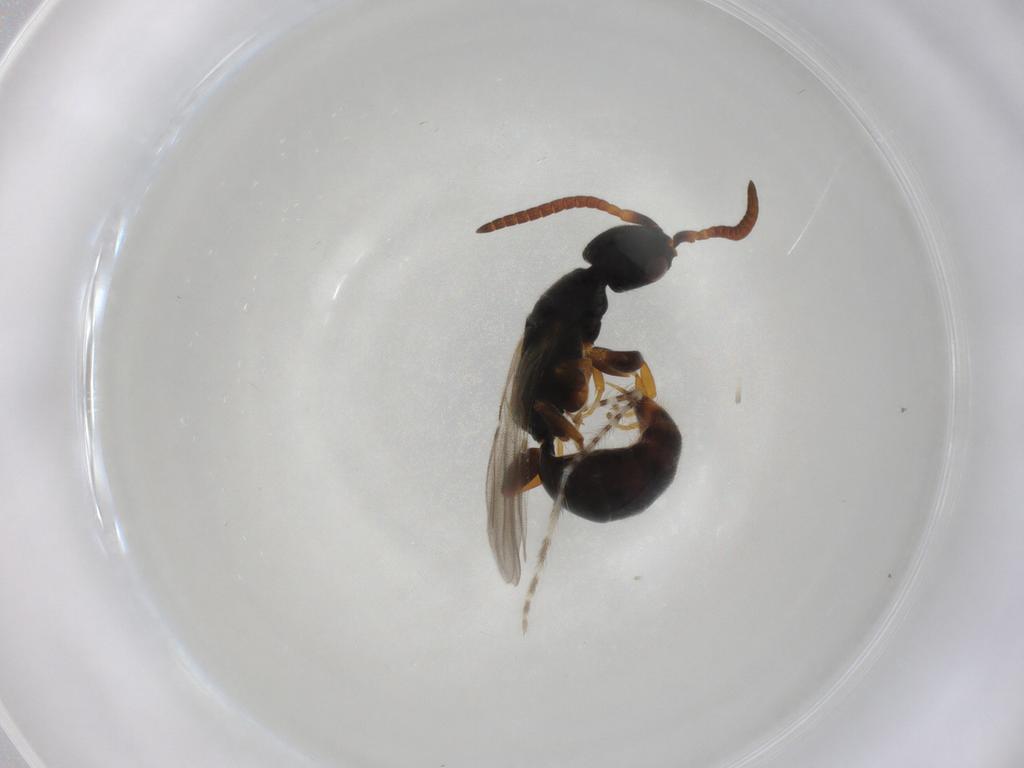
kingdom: Animalia
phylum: Arthropoda
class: Insecta
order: Hymenoptera
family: Bethylidae
